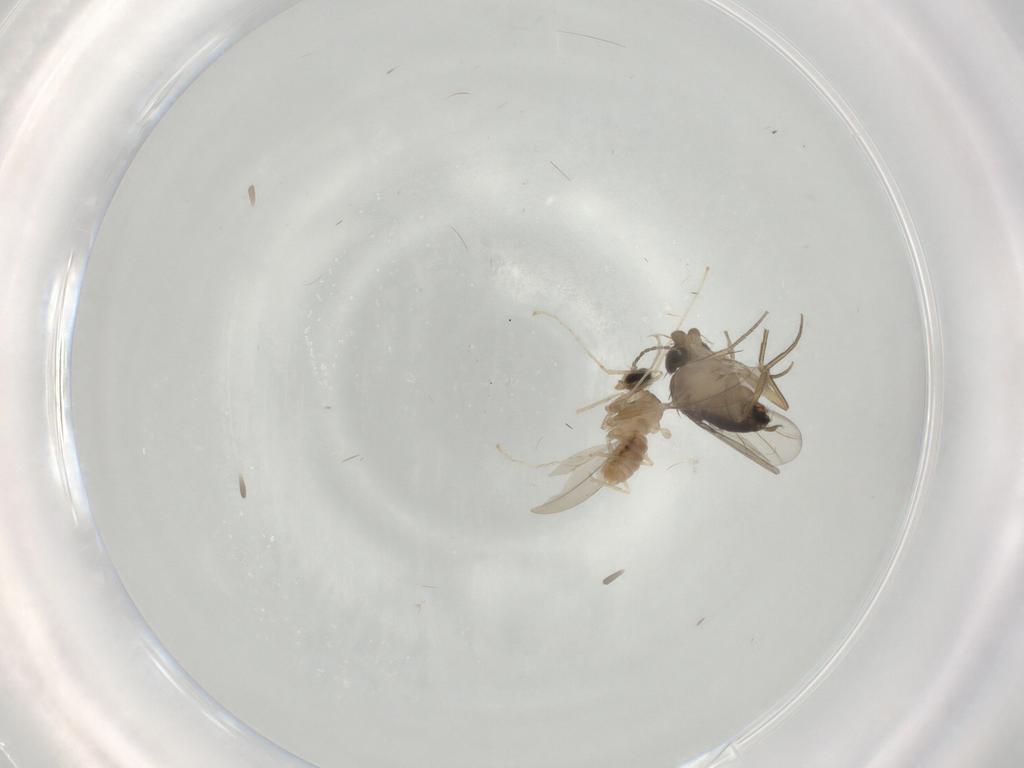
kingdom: Animalia
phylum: Arthropoda
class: Insecta
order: Diptera
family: Cecidomyiidae
